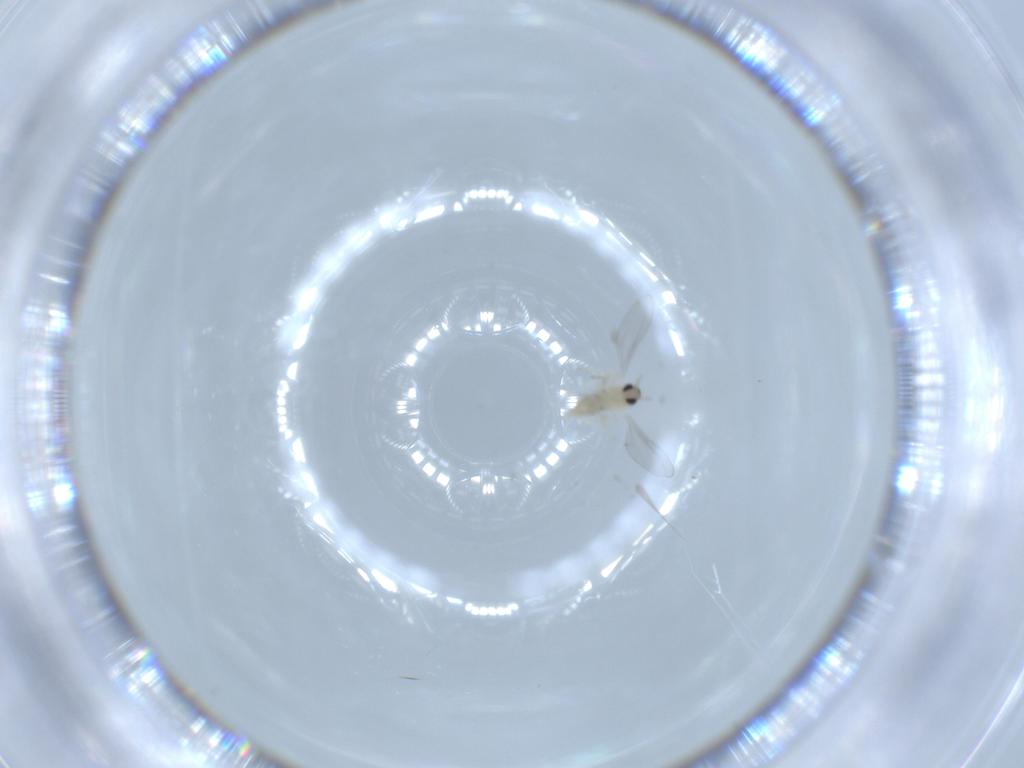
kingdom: Animalia
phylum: Arthropoda
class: Insecta
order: Diptera
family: Cecidomyiidae
